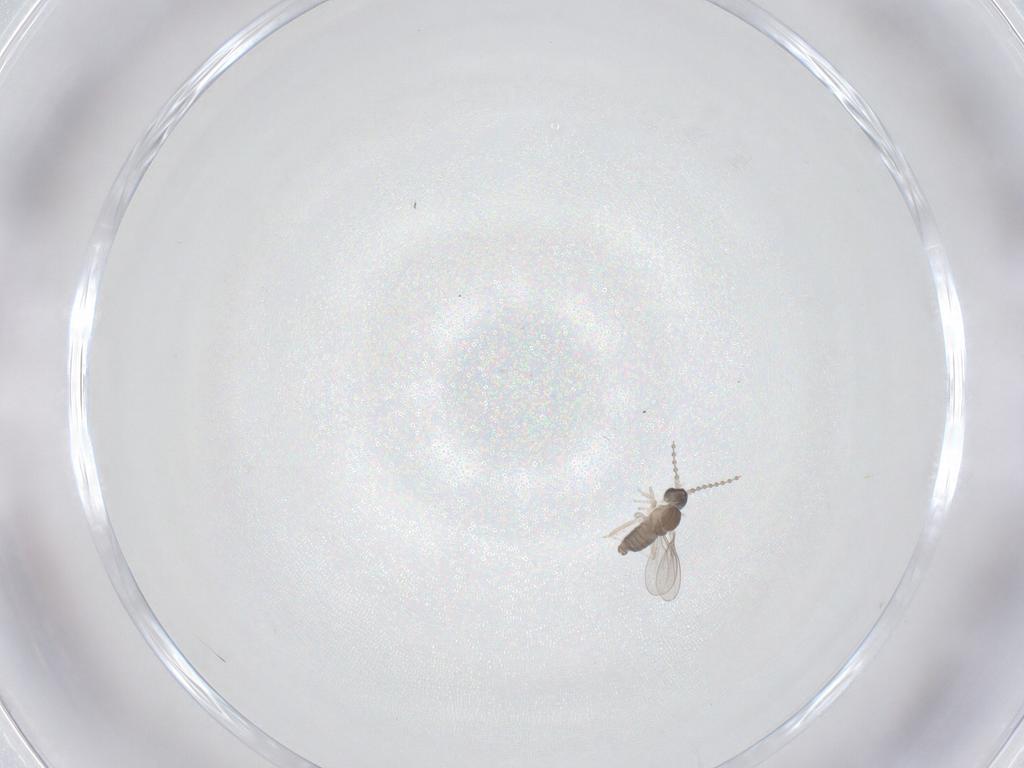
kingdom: Animalia
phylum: Arthropoda
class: Insecta
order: Diptera
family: Cecidomyiidae
